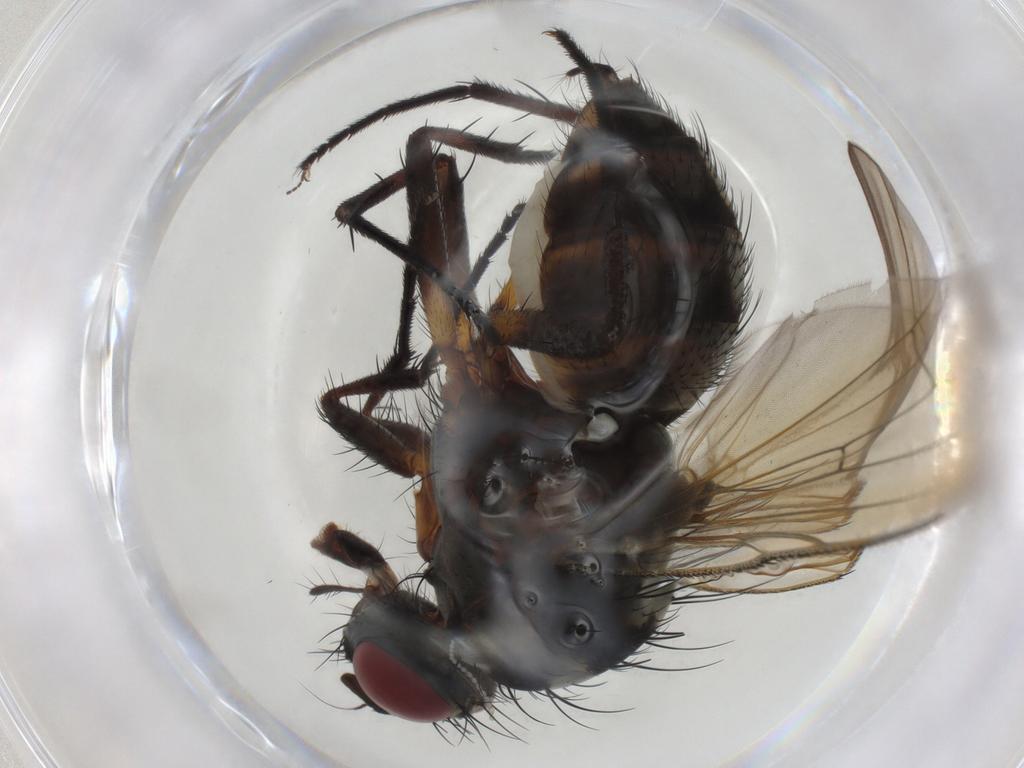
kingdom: Animalia
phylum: Arthropoda
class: Insecta
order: Diptera
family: Anthomyiidae
